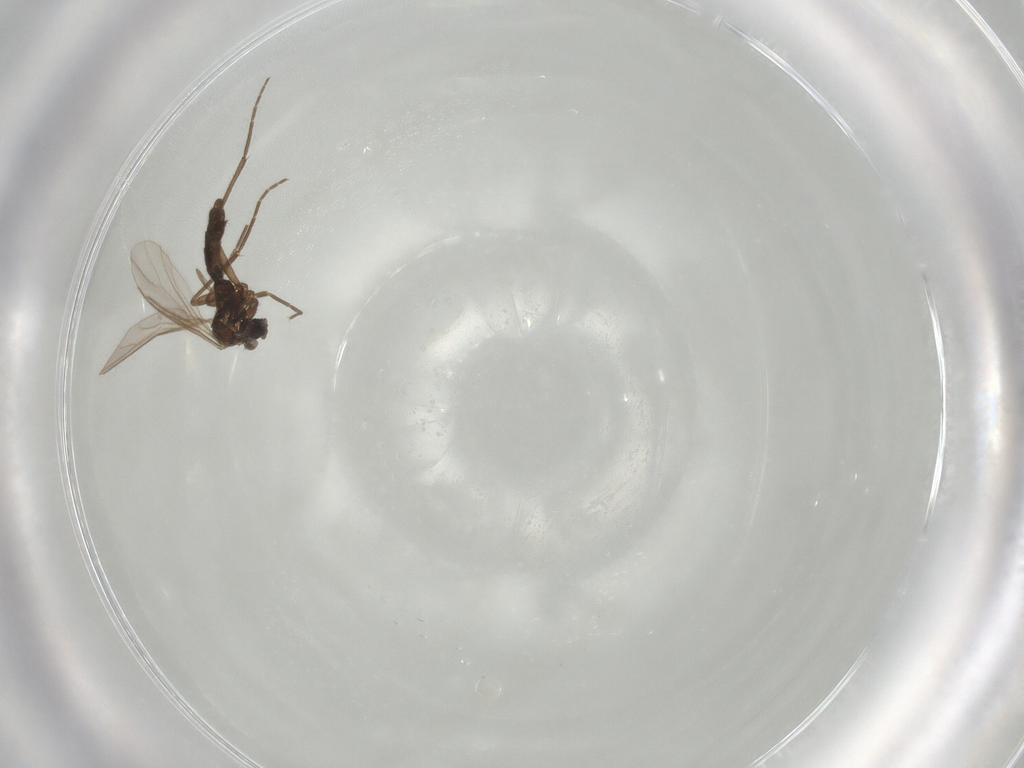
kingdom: Animalia
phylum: Arthropoda
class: Insecta
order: Diptera
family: Sciaridae
